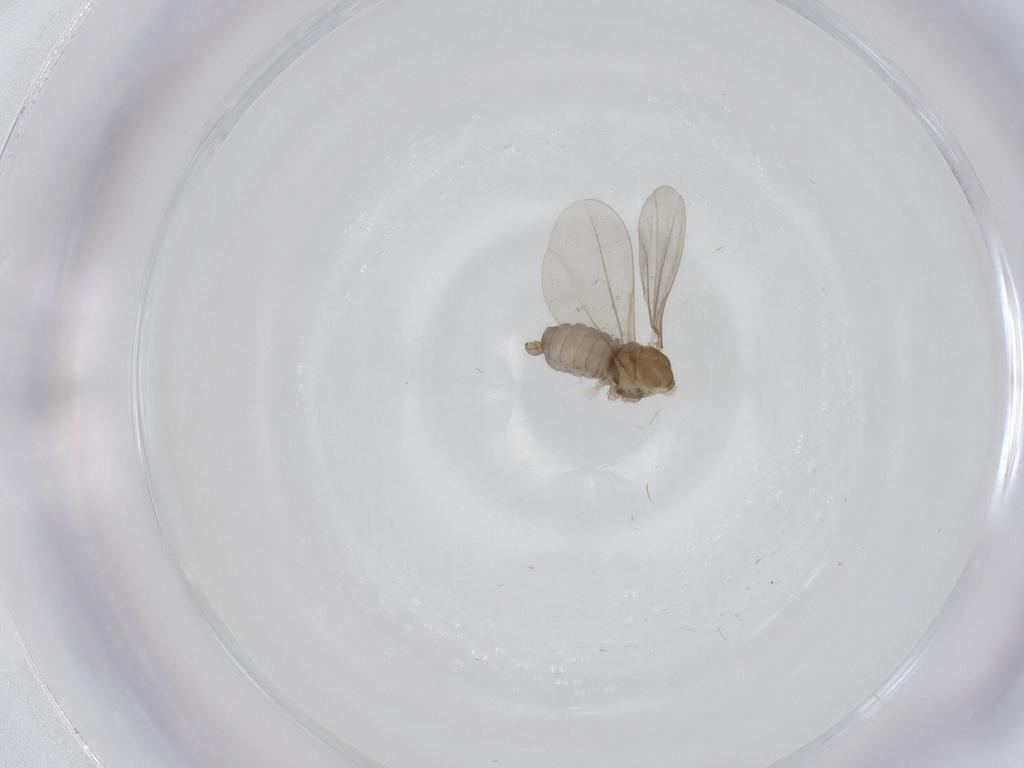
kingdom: Animalia
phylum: Arthropoda
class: Insecta
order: Diptera
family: Cecidomyiidae
